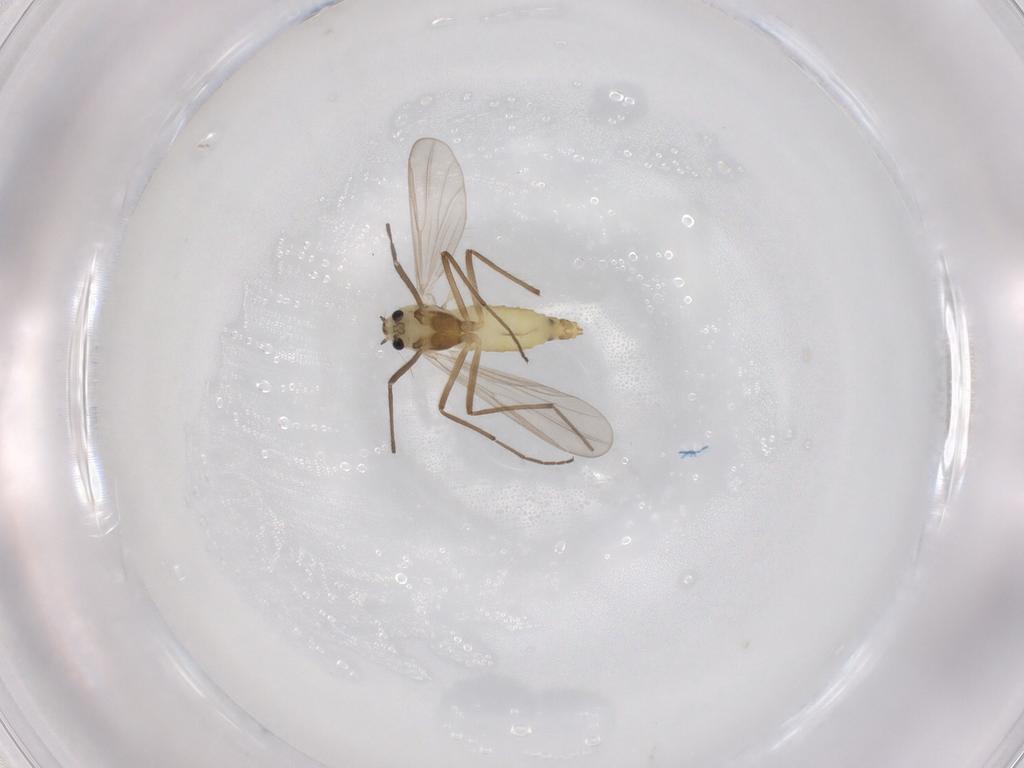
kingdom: Animalia
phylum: Arthropoda
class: Insecta
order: Diptera
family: Chironomidae
